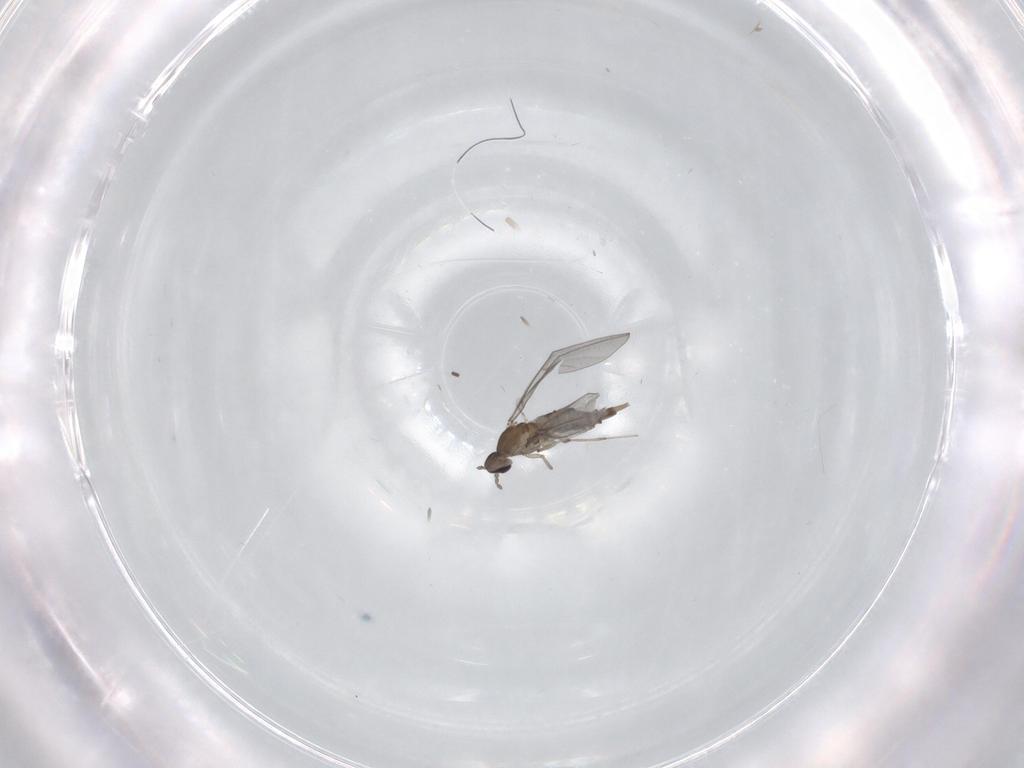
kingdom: Animalia
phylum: Arthropoda
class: Insecta
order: Diptera
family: Cecidomyiidae
